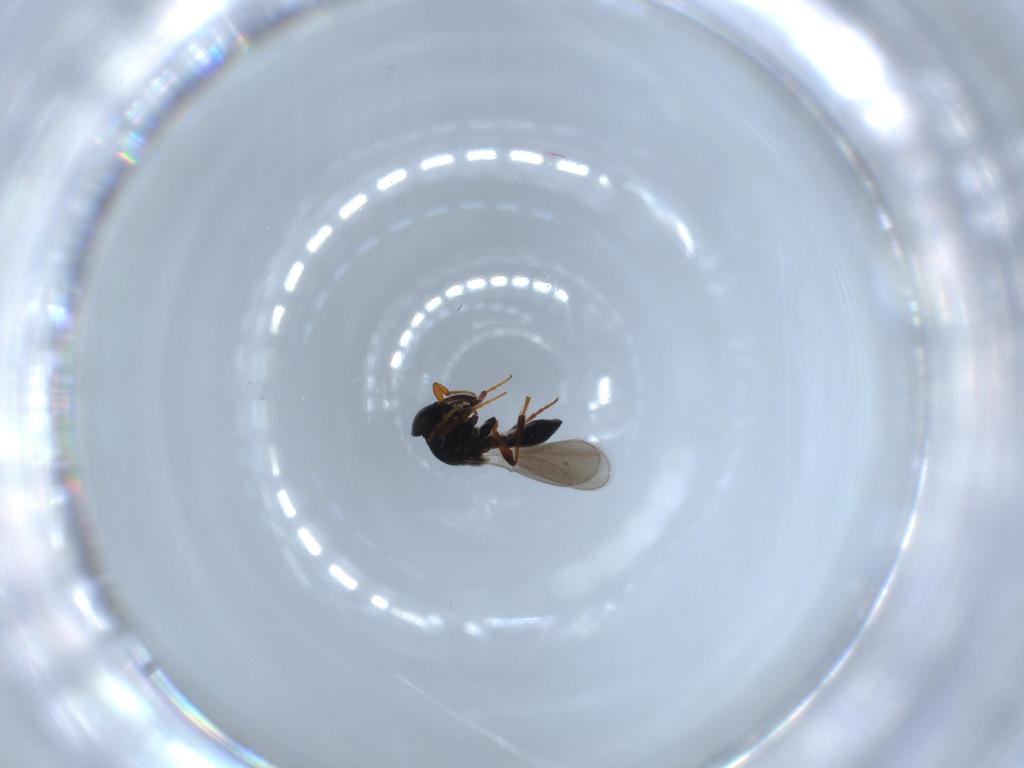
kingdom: Animalia
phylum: Arthropoda
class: Insecta
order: Hymenoptera
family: Platygastridae
